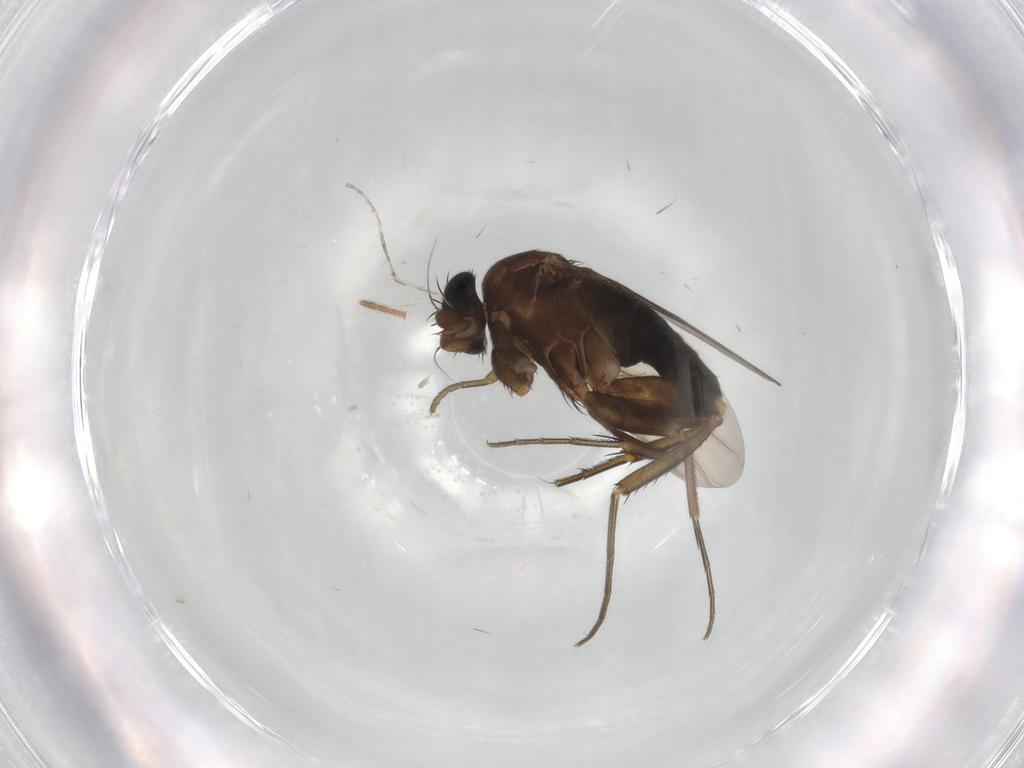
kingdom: Animalia
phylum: Arthropoda
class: Insecta
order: Diptera
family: Phoridae
